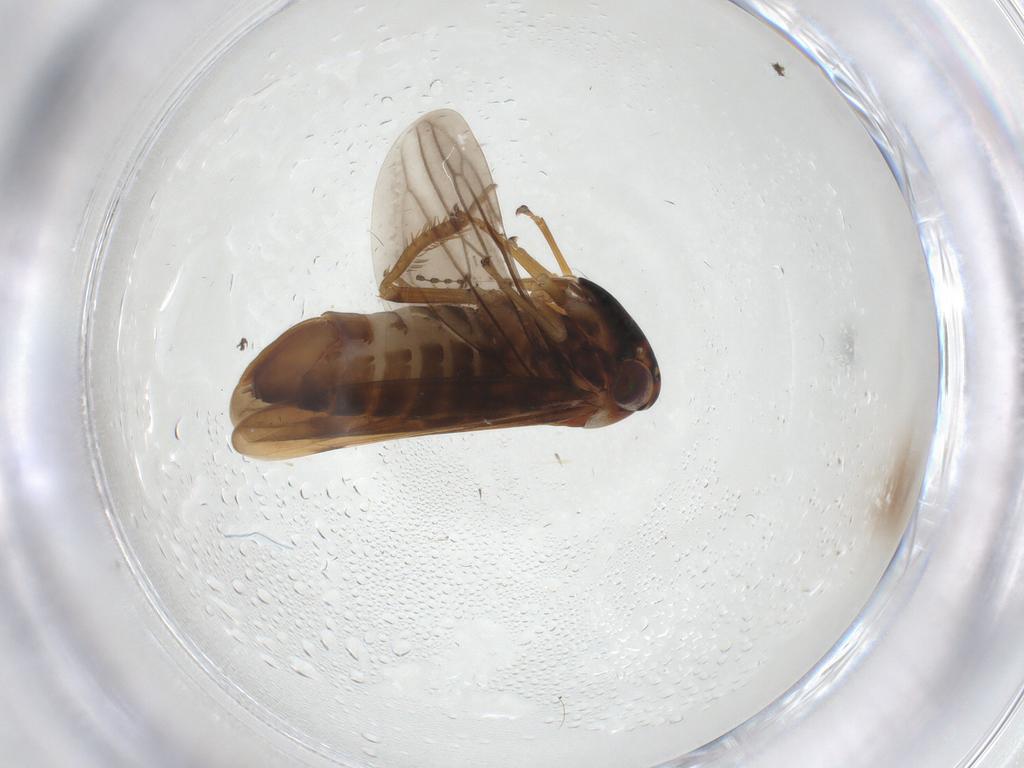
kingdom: Animalia
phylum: Arthropoda
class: Insecta
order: Hemiptera
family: Cicadellidae
